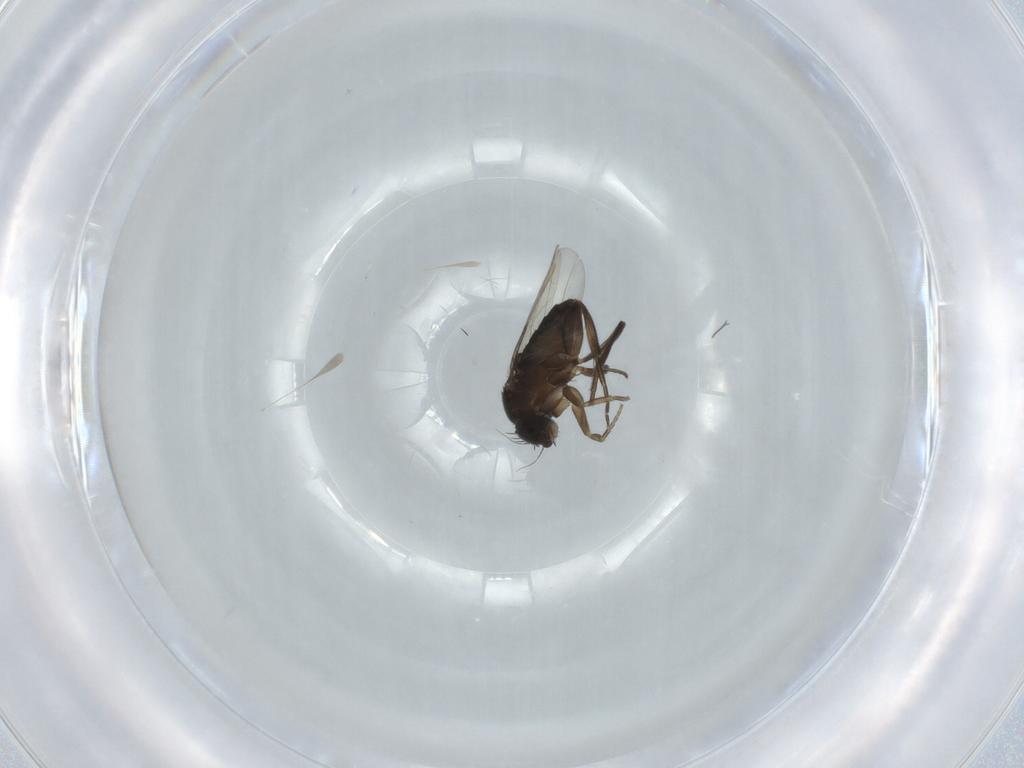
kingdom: Animalia
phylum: Arthropoda
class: Insecta
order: Diptera
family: Phoridae
